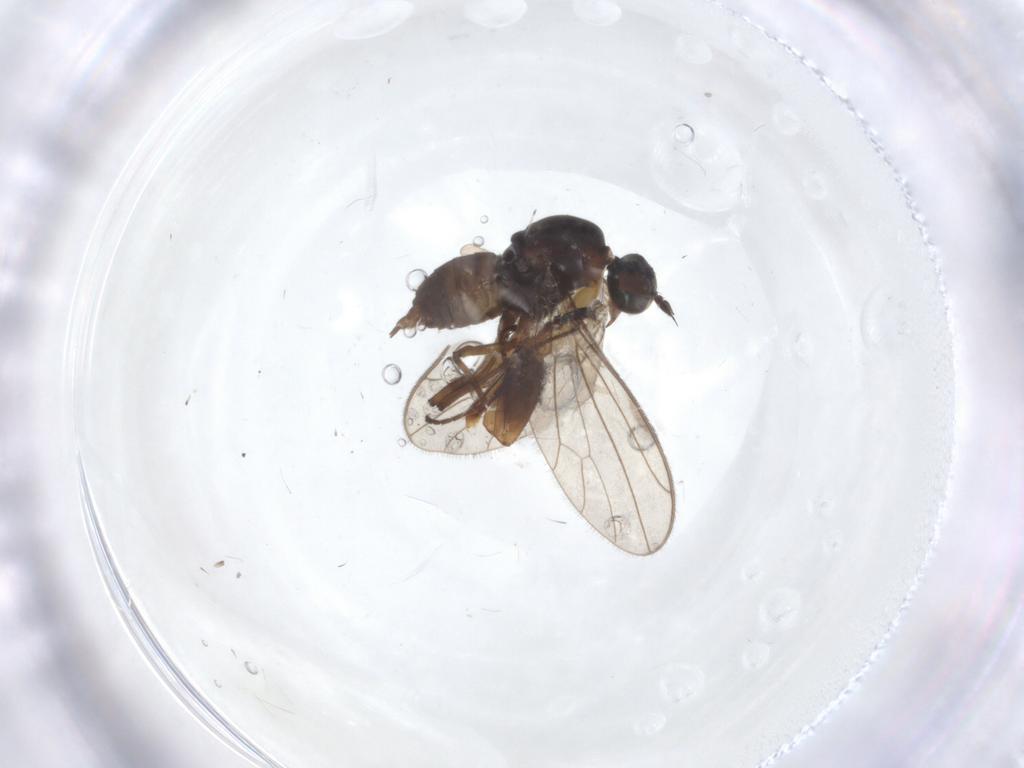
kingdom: Animalia
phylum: Arthropoda
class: Insecta
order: Diptera
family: Empididae
